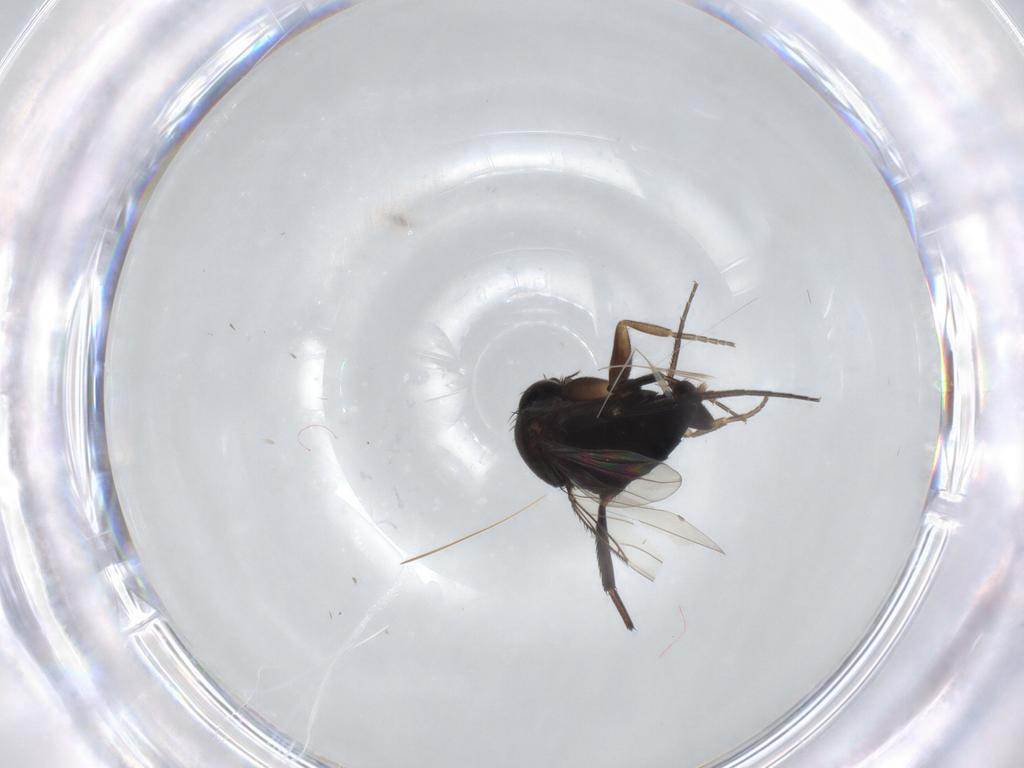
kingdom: Animalia
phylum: Arthropoda
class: Insecta
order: Diptera
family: Phoridae
